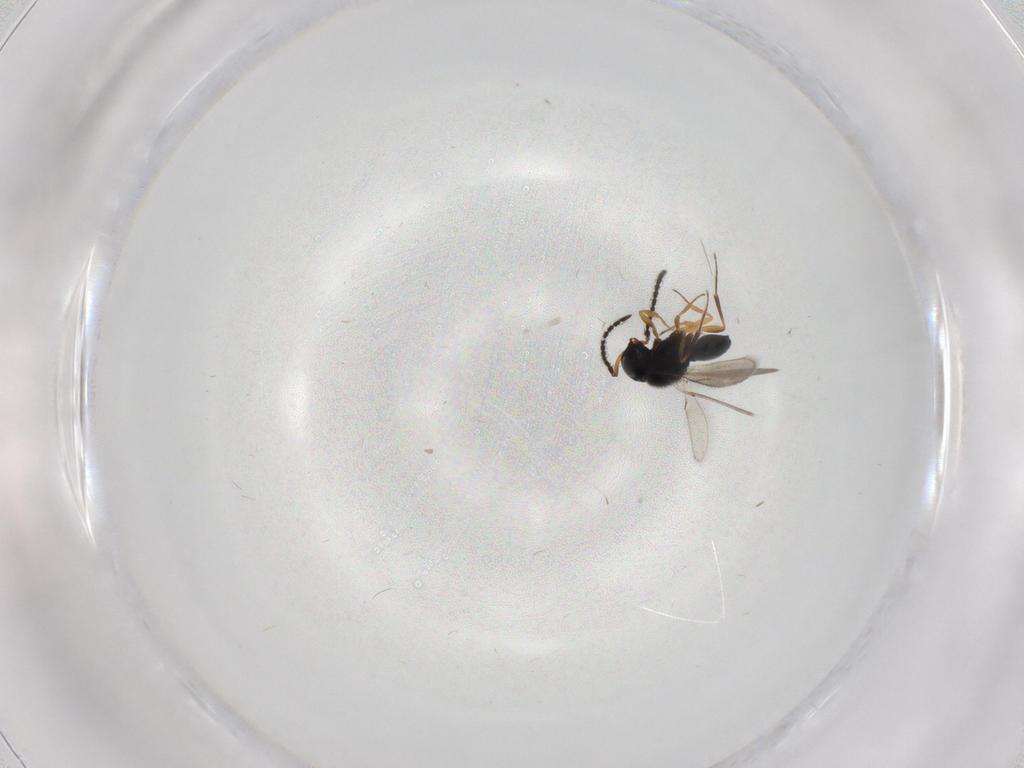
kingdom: Animalia
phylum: Arthropoda
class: Insecta
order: Hymenoptera
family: Scelionidae
